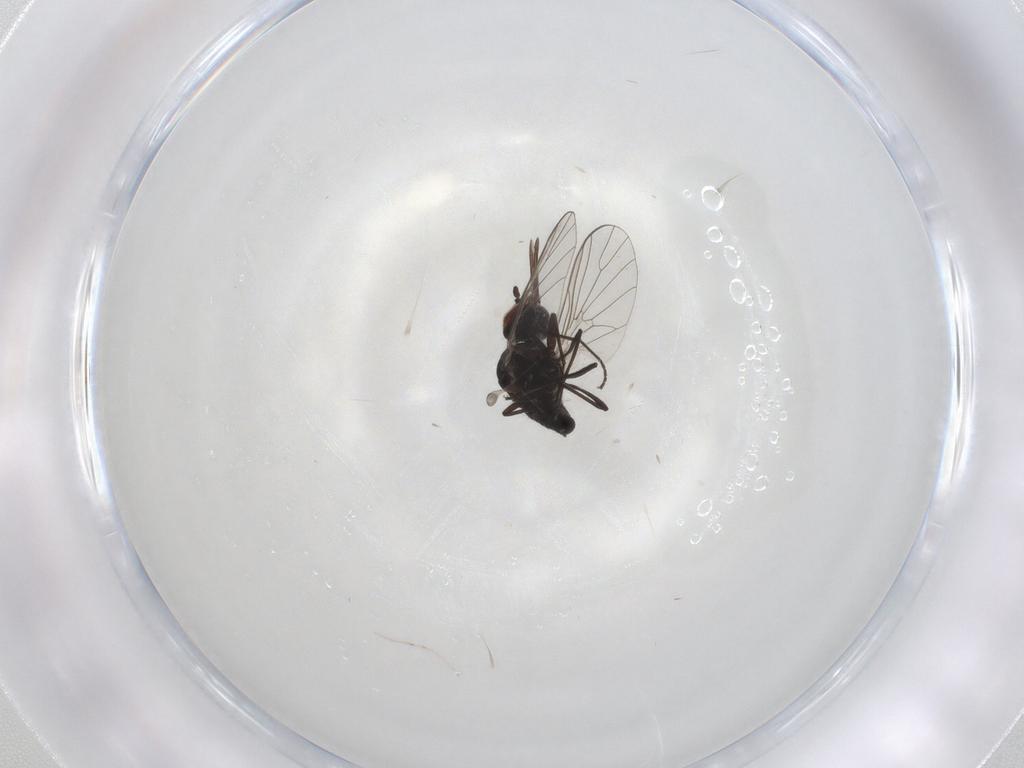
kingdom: Animalia
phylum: Arthropoda
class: Insecta
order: Diptera
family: Bombyliidae
